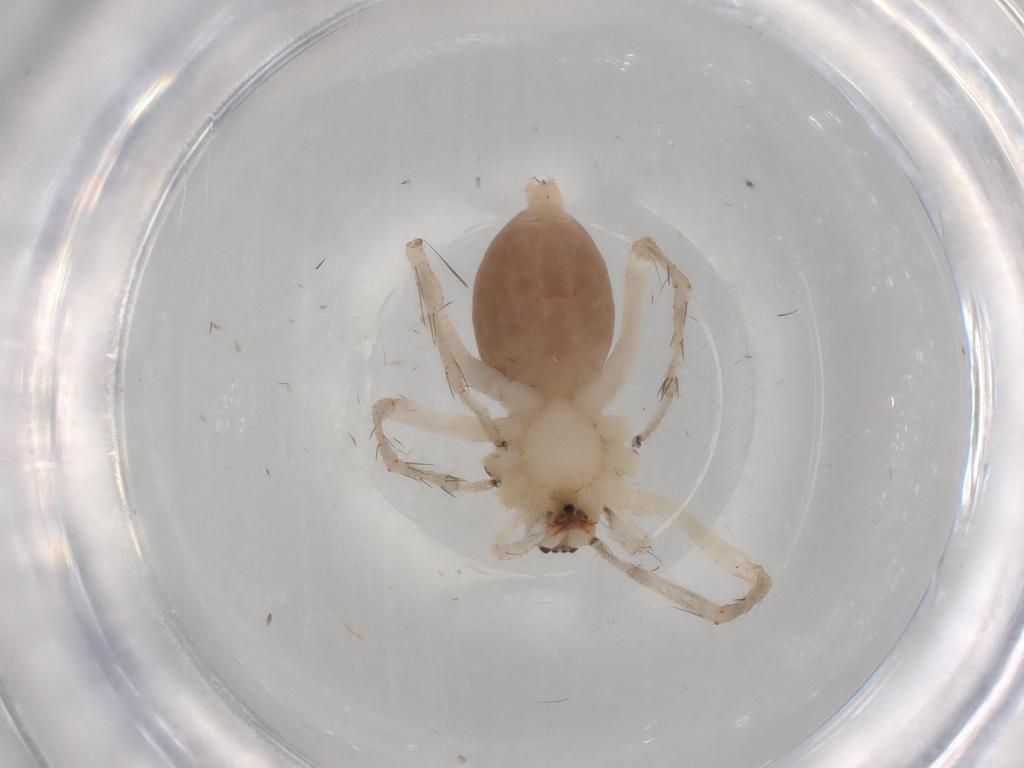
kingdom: Animalia
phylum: Arthropoda
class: Arachnida
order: Araneae
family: Anyphaenidae
